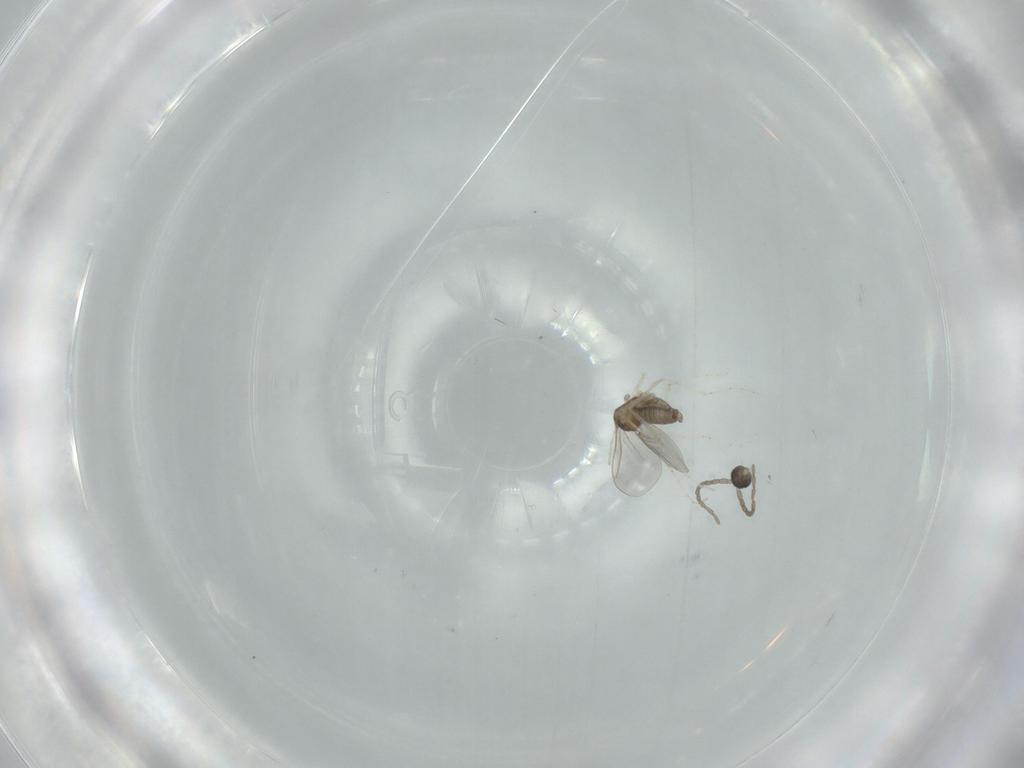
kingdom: Animalia
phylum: Arthropoda
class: Insecta
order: Diptera
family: Cecidomyiidae
